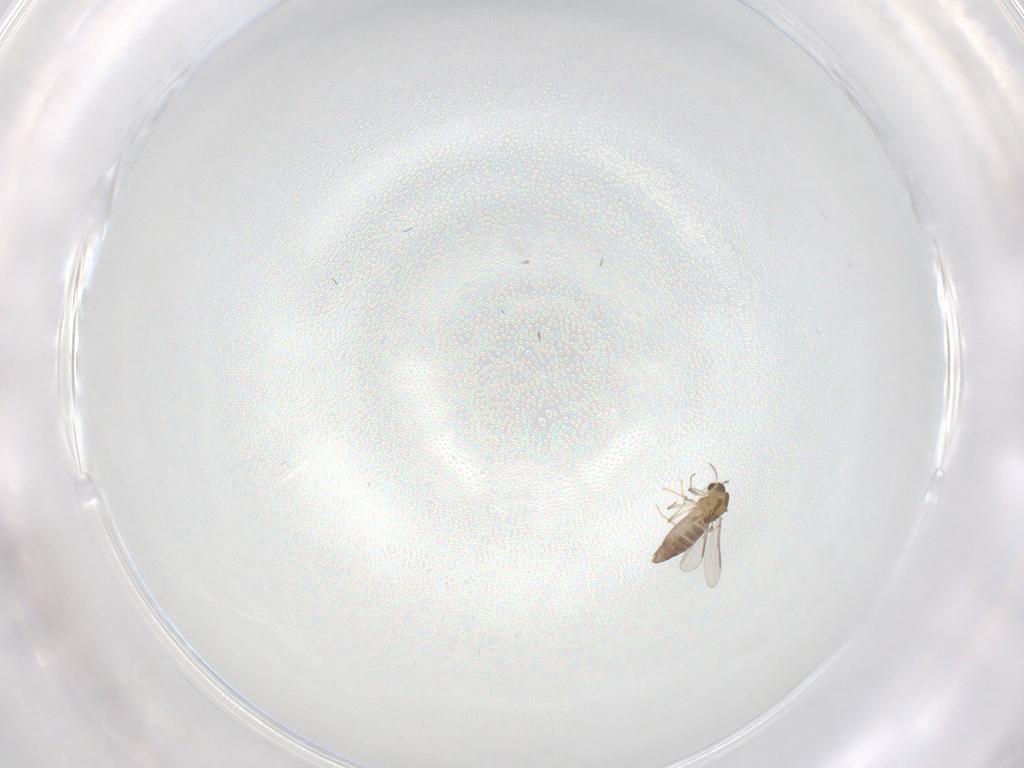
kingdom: Animalia
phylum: Arthropoda
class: Insecta
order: Diptera
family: Chironomidae
